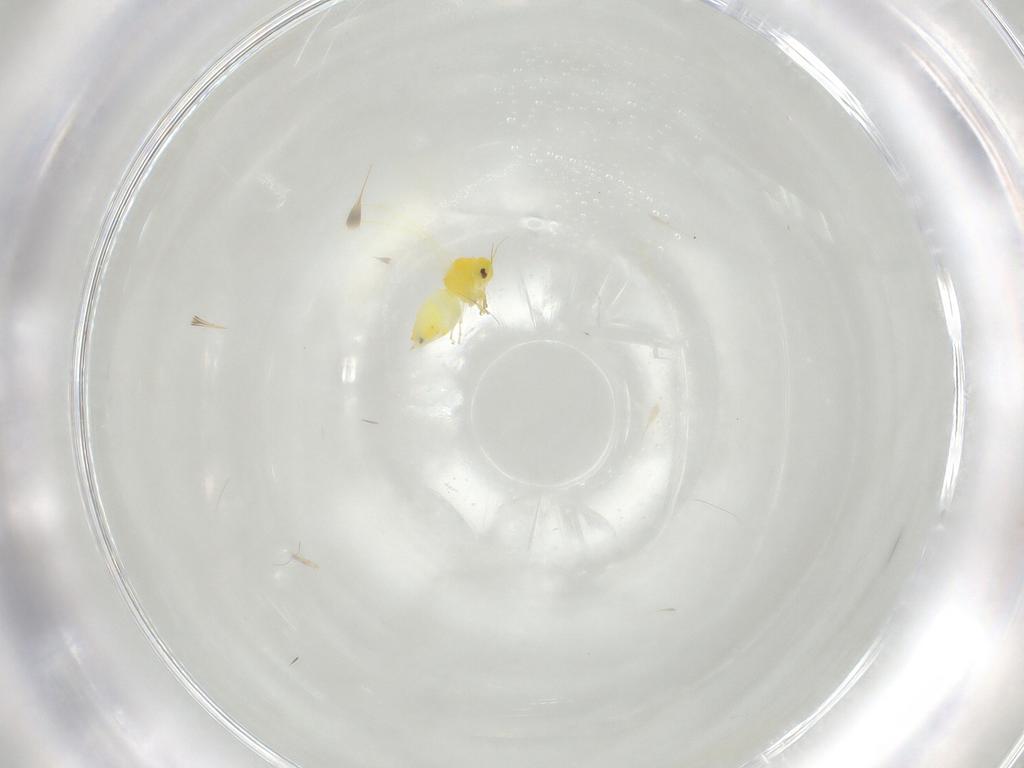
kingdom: Animalia
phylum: Arthropoda
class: Insecta
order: Hemiptera
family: Aleyrodidae
